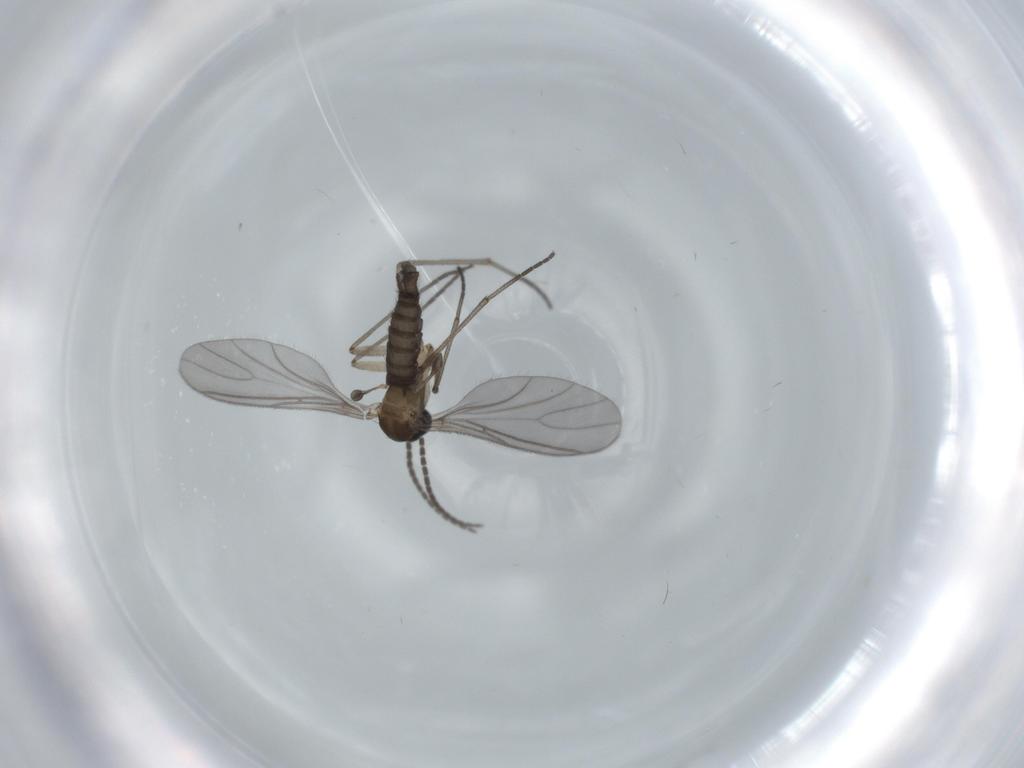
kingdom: Animalia
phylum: Arthropoda
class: Insecta
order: Diptera
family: Sciaridae
